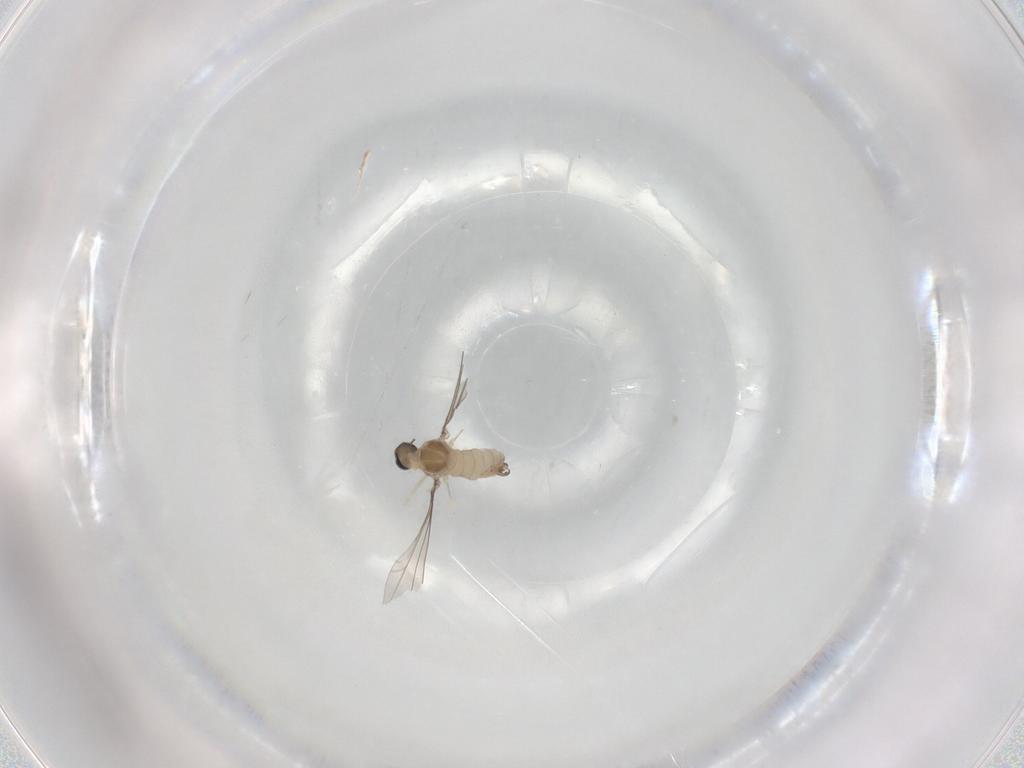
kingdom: Animalia
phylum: Arthropoda
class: Insecta
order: Diptera
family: Cecidomyiidae
